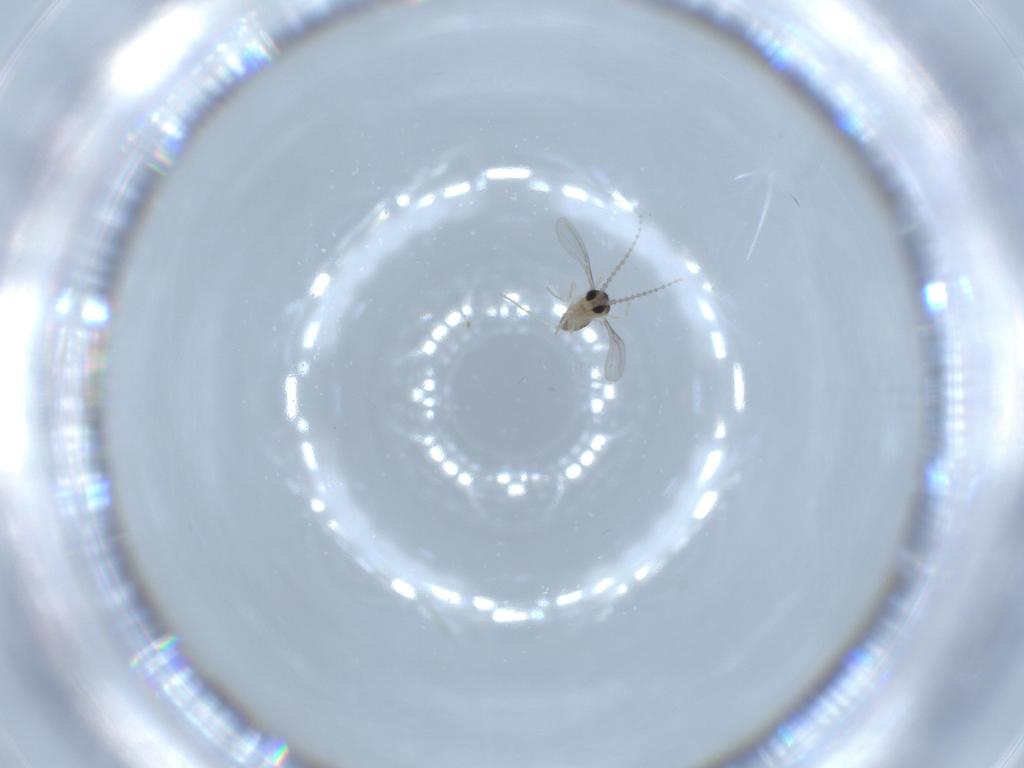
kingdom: Animalia
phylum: Arthropoda
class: Insecta
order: Diptera
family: Cecidomyiidae
